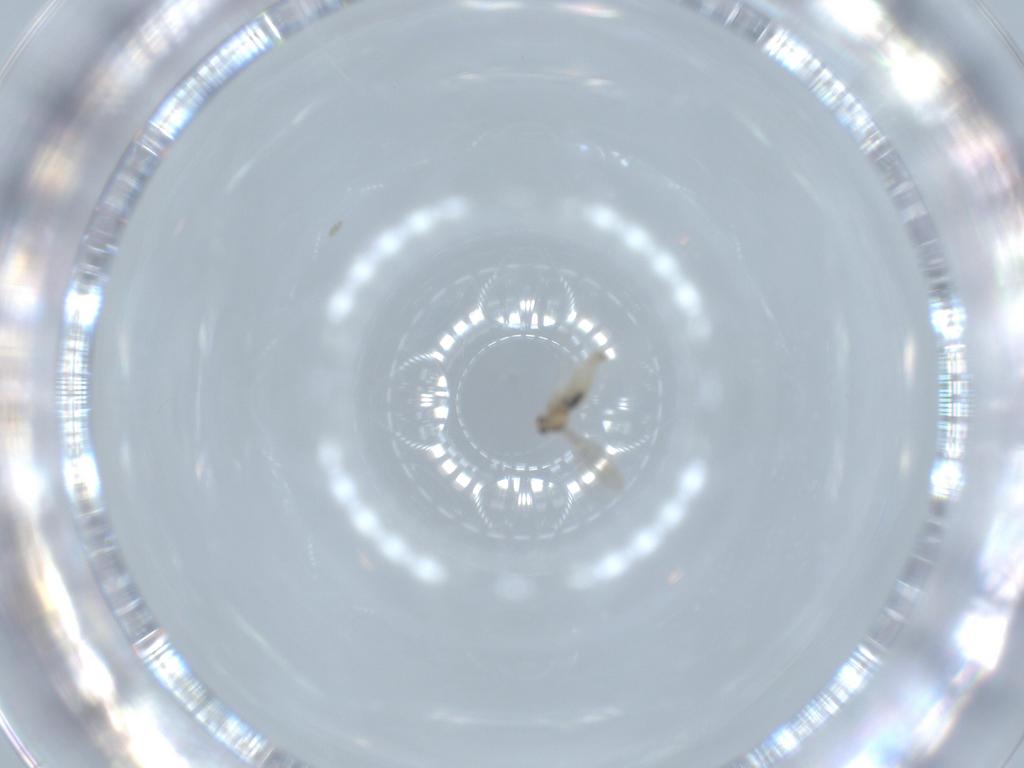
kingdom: Animalia
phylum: Arthropoda
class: Insecta
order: Diptera
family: Cecidomyiidae
